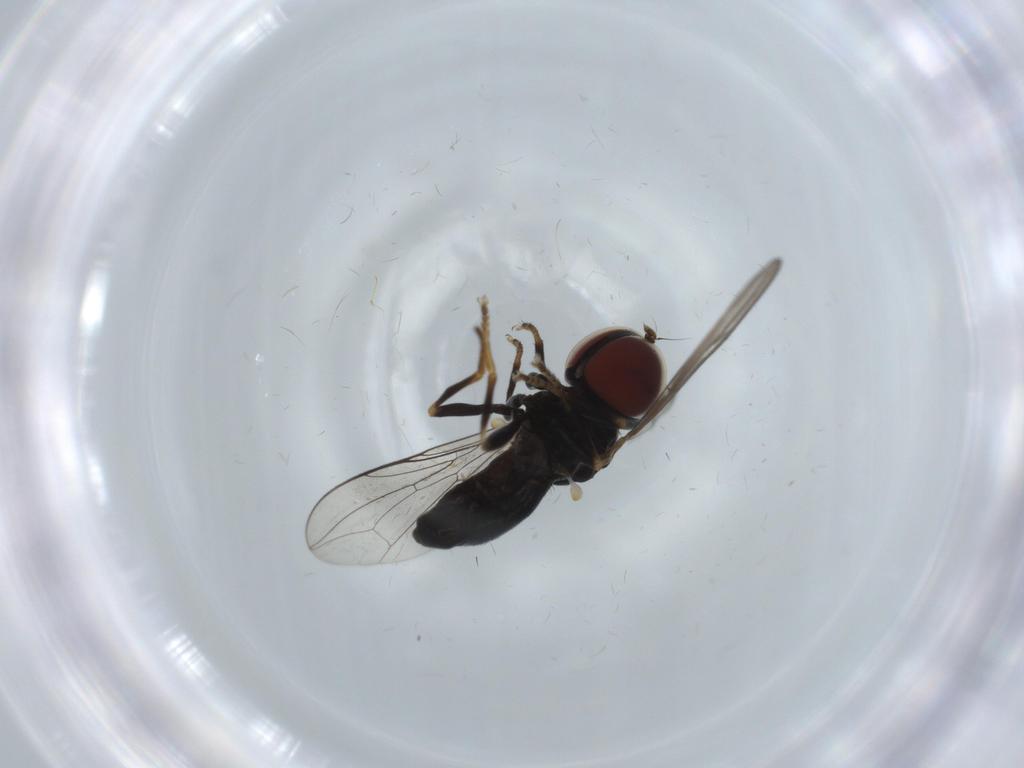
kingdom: Animalia
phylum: Arthropoda
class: Insecta
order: Diptera
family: Pipunculidae
